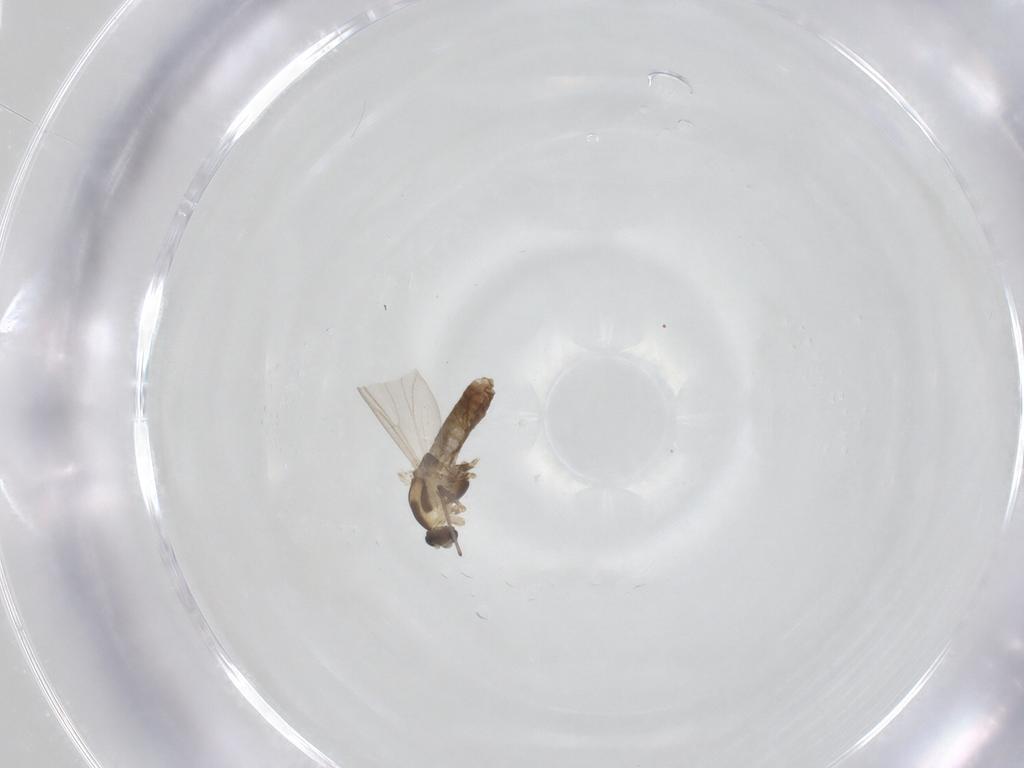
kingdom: Animalia
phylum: Arthropoda
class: Insecta
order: Diptera
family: Chironomidae
